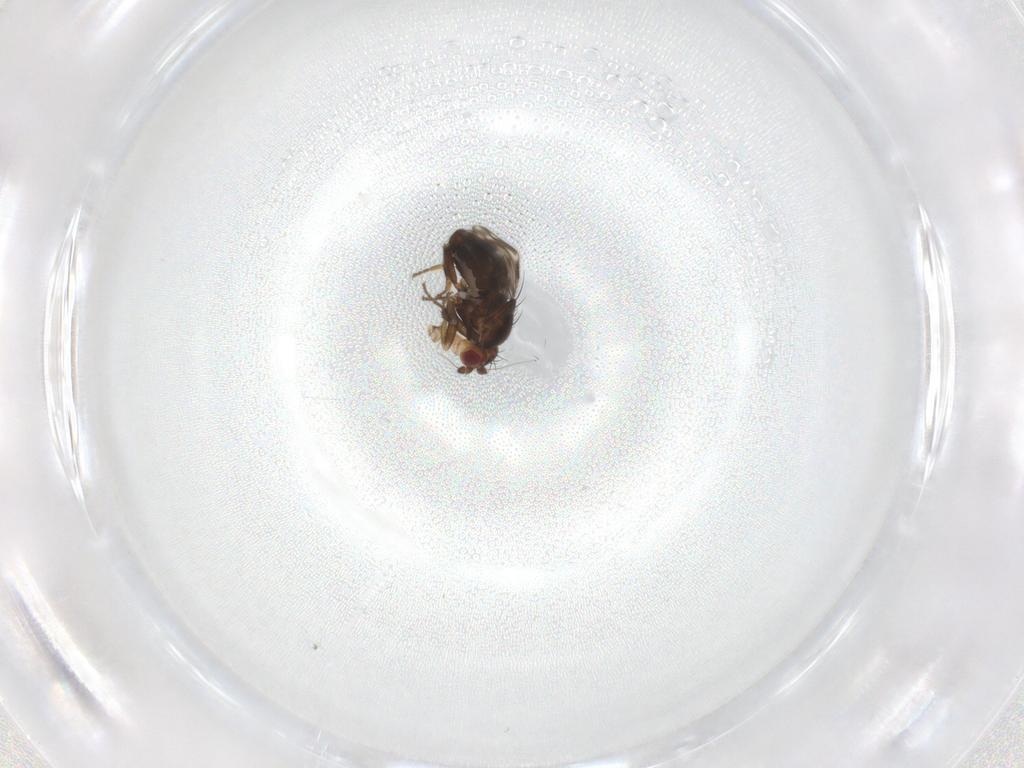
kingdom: Animalia
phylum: Arthropoda
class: Insecta
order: Diptera
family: Sphaeroceridae
